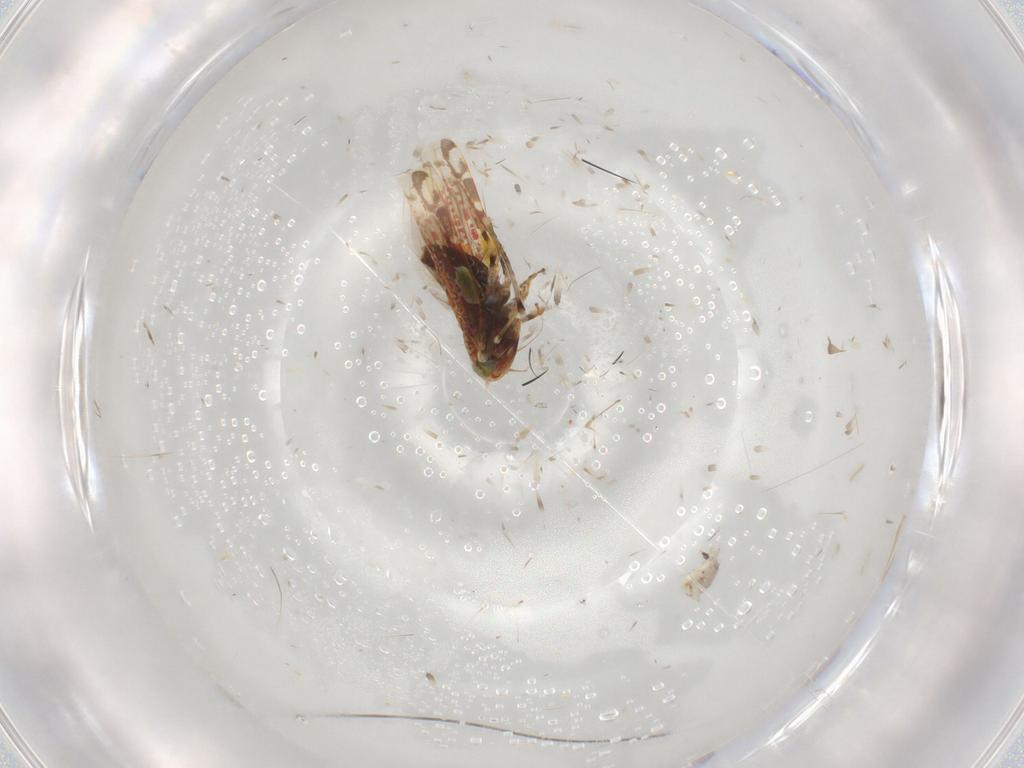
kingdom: Animalia
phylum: Arthropoda
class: Insecta
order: Hemiptera
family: Cicadellidae
